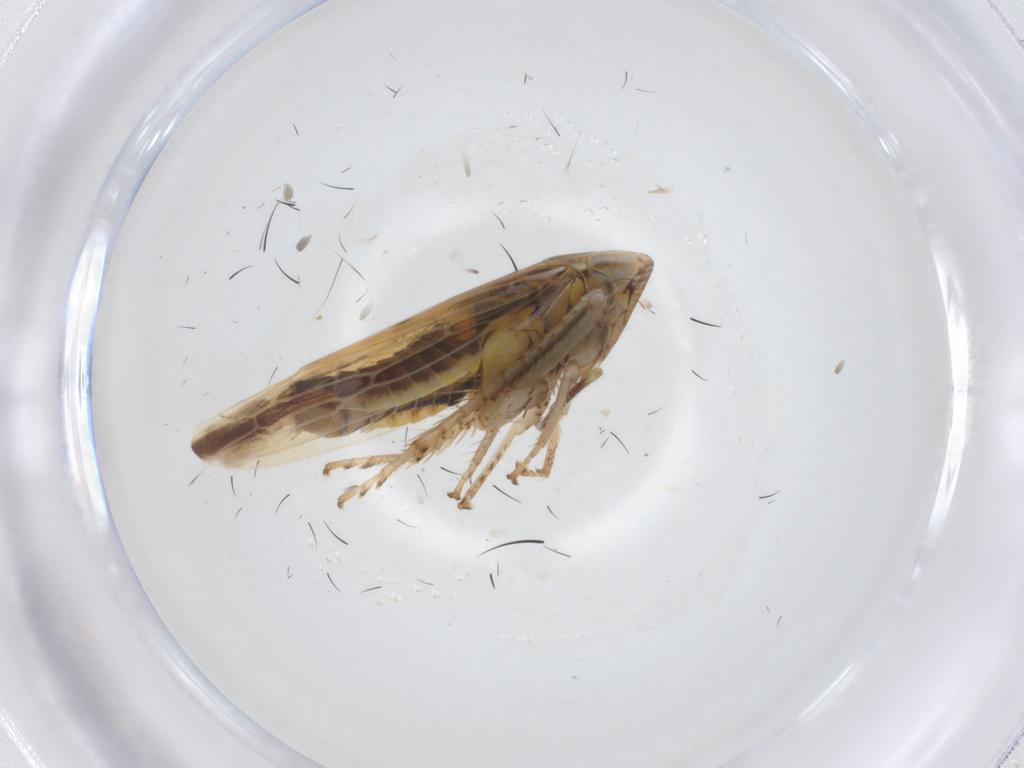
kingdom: Animalia
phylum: Arthropoda
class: Insecta
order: Hemiptera
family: Cicadellidae
